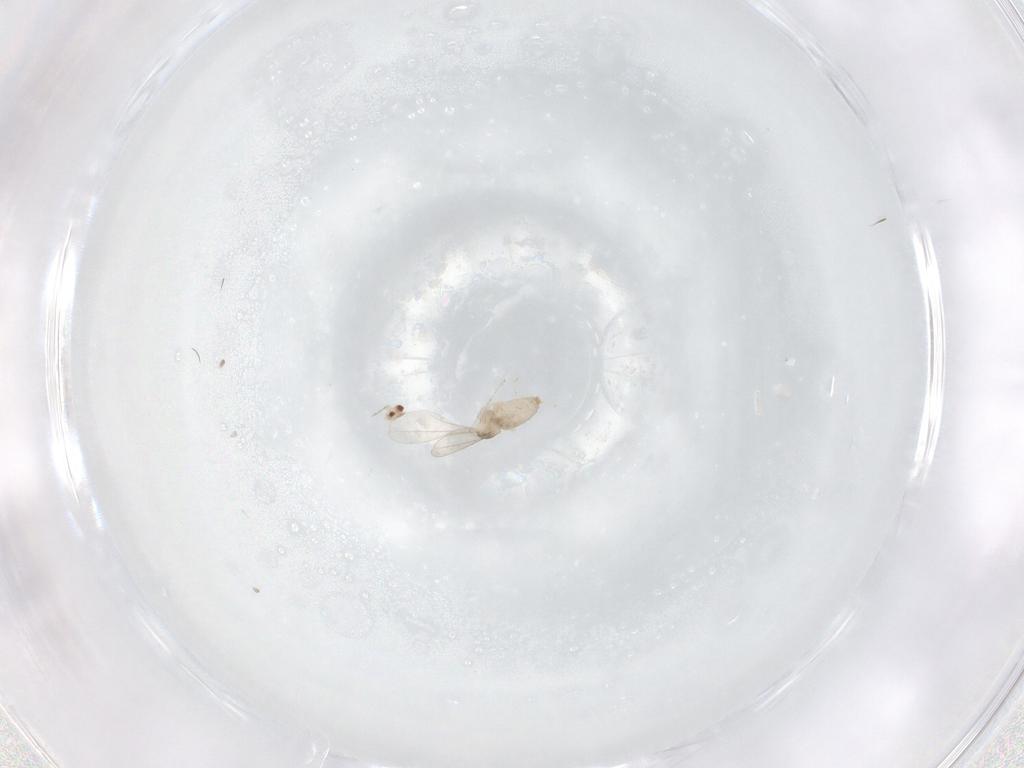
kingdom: Animalia
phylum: Arthropoda
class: Insecta
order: Diptera
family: Cecidomyiidae
